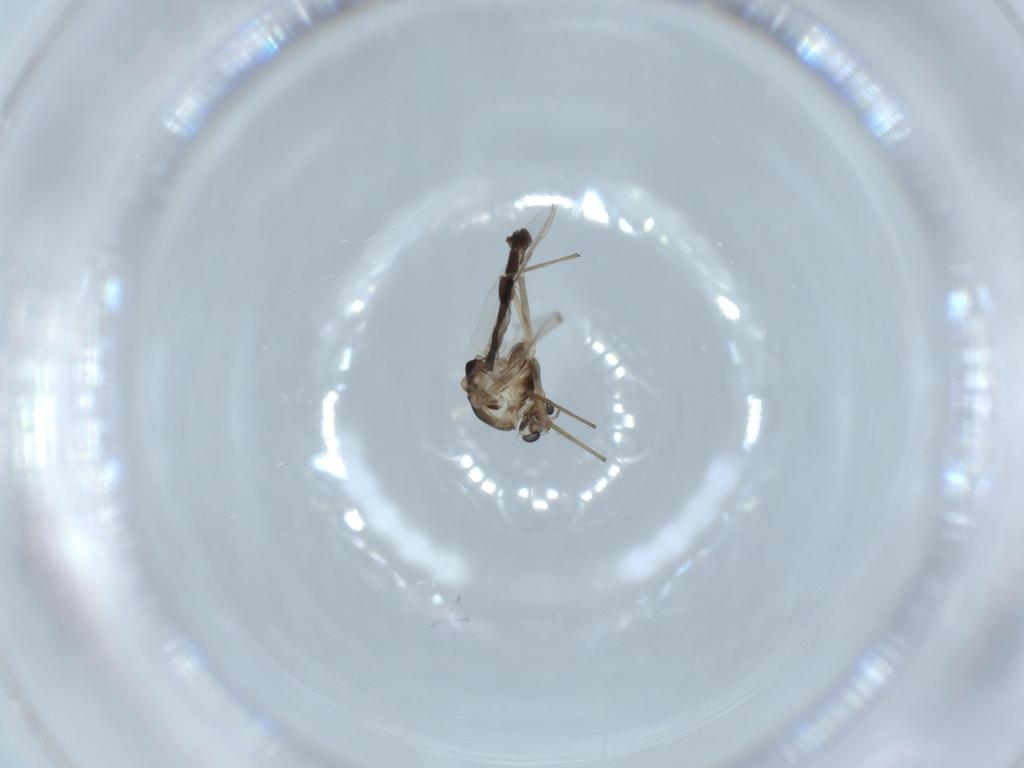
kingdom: Animalia
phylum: Arthropoda
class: Insecta
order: Diptera
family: Chironomidae
